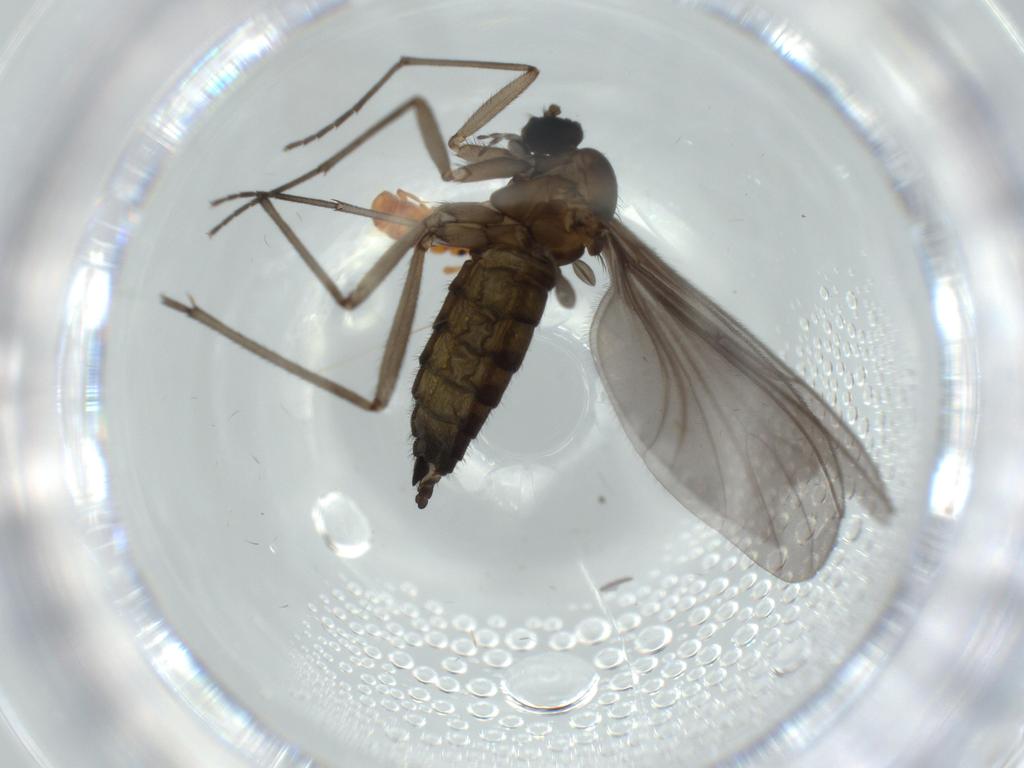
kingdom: Animalia
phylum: Arthropoda
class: Insecta
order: Diptera
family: Sciaridae
